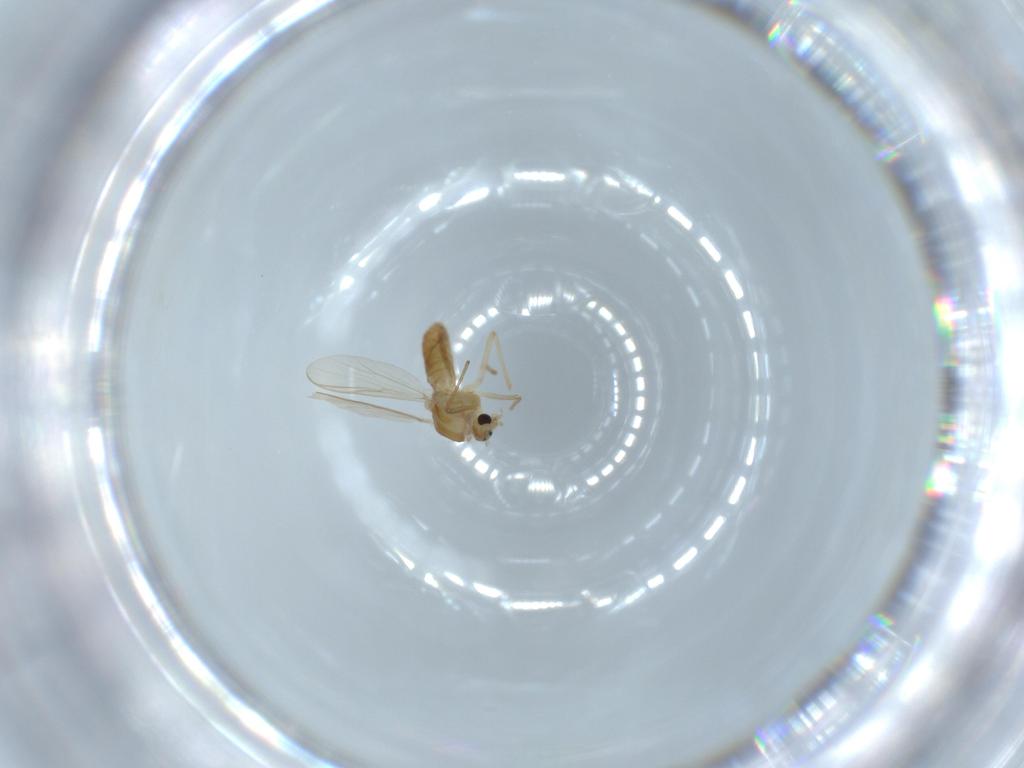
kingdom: Animalia
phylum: Arthropoda
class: Insecta
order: Diptera
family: Chironomidae
